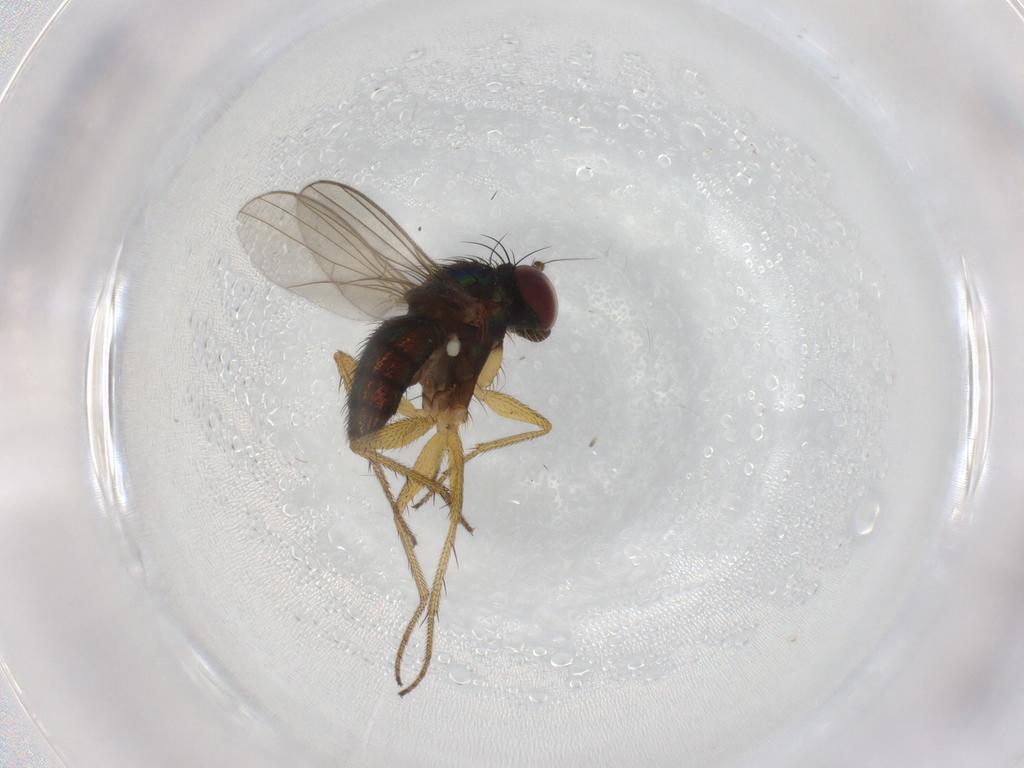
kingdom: Animalia
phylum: Arthropoda
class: Insecta
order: Diptera
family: Dolichopodidae
